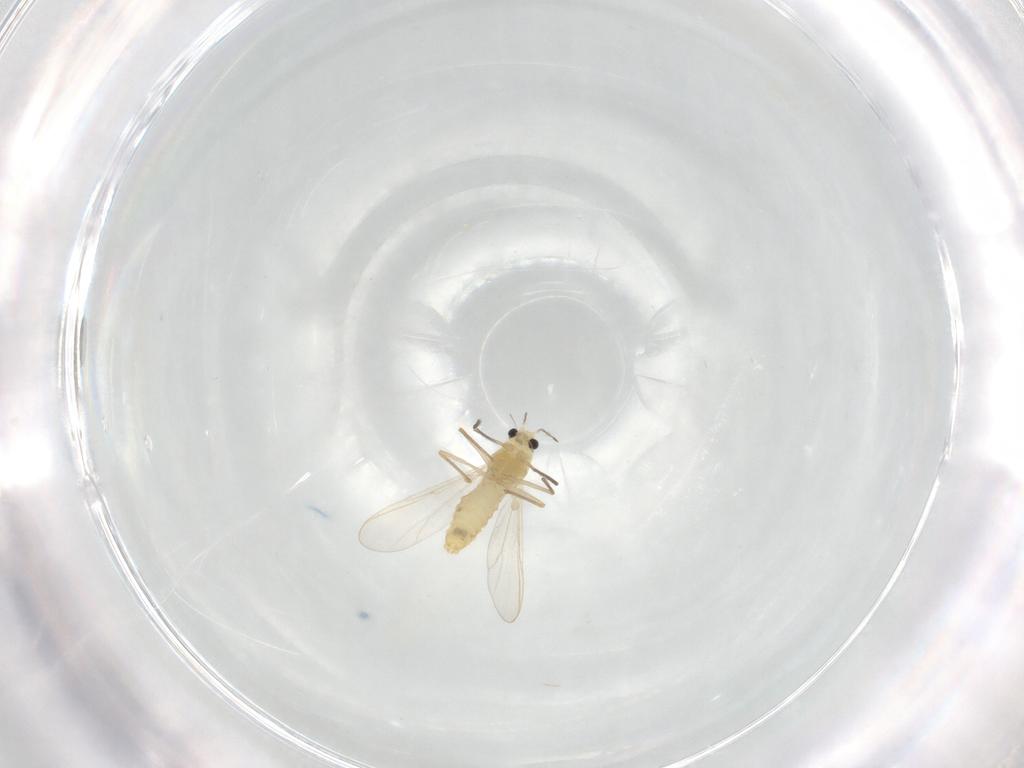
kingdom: Animalia
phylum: Arthropoda
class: Insecta
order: Diptera
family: Chironomidae
